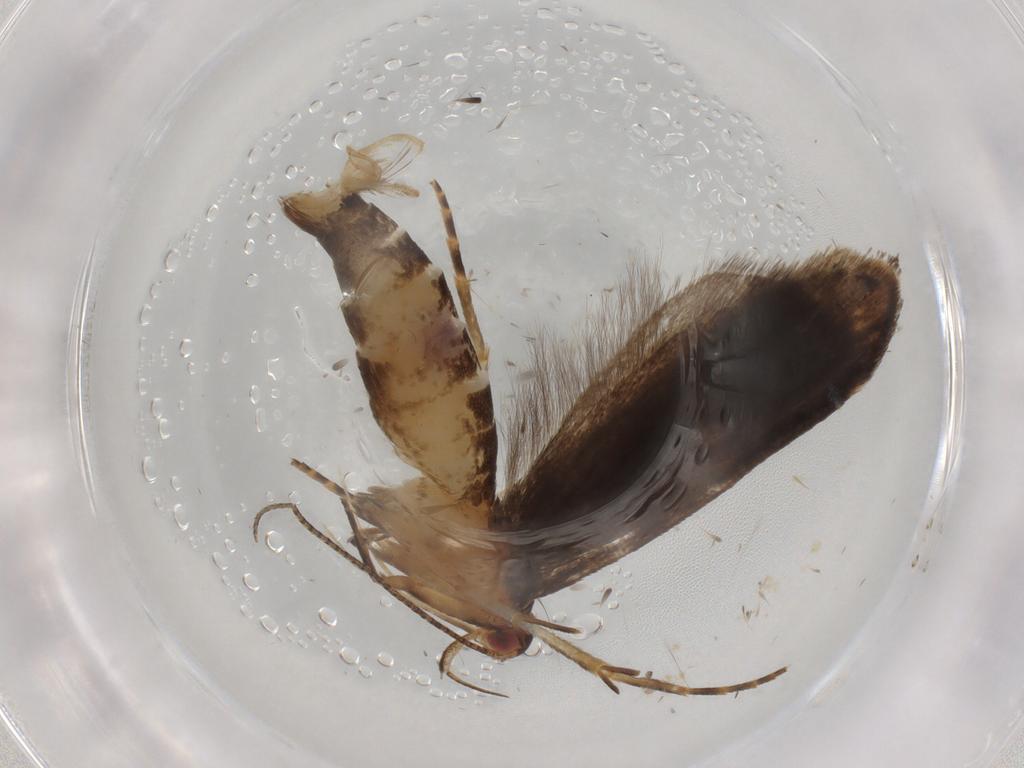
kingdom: Animalia
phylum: Arthropoda
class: Insecta
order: Lepidoptera
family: Gelechiidae
